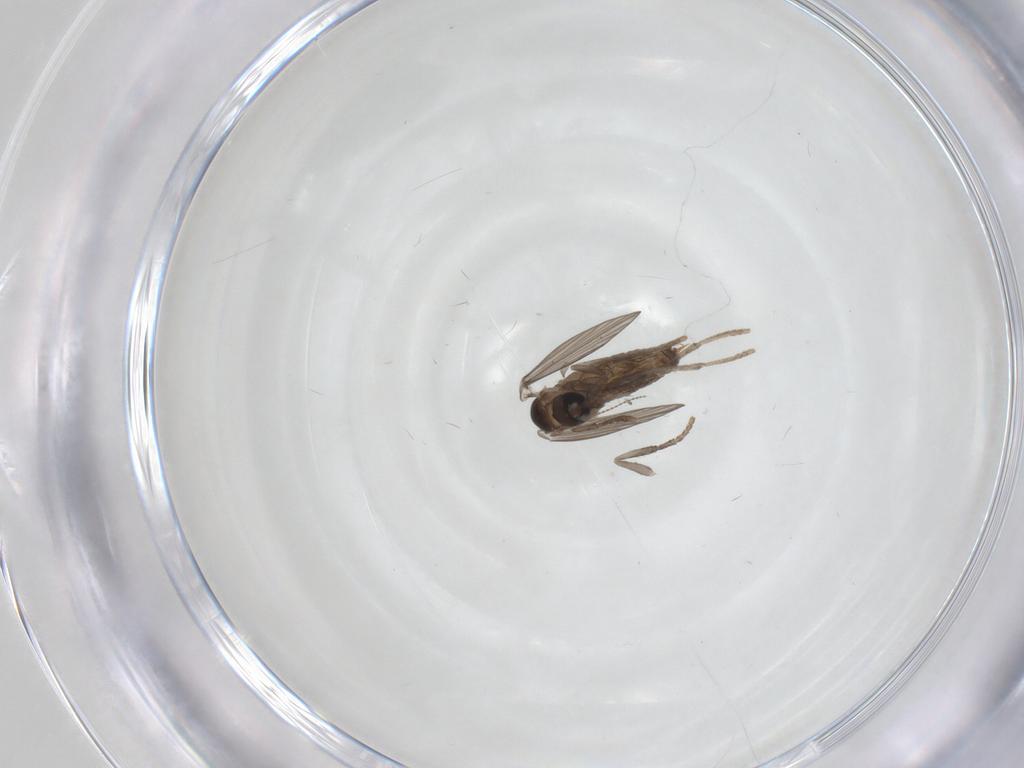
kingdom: Animalia
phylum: Arthropoda
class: Insecta
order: Diptera
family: Psychodidae
